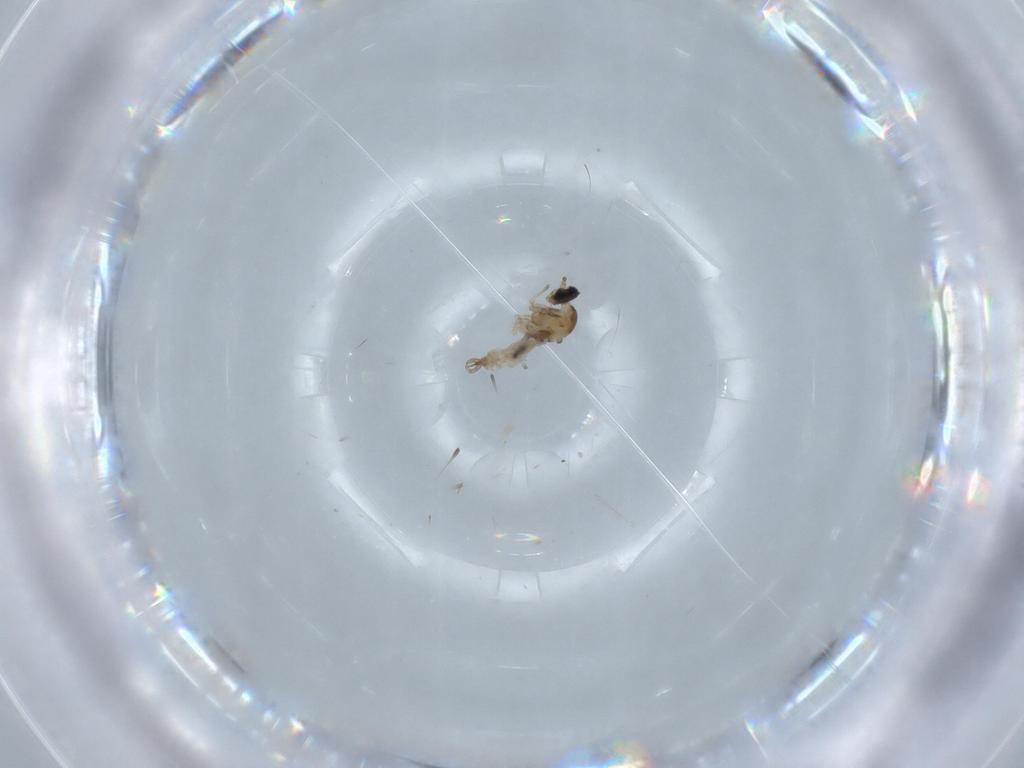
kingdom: Animalia
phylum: Arthropoda
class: Insecta
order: Diptera
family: Cecidomyiidae
